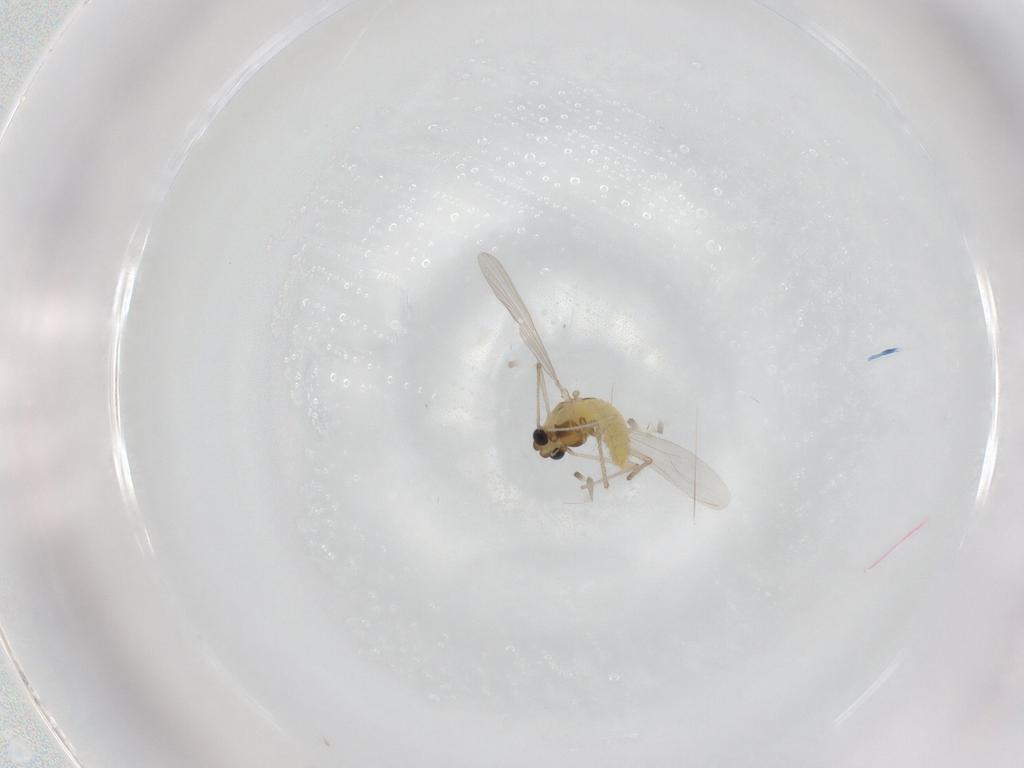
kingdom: Animalia
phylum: Arthropoda
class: Insecta
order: Diptera
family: Chironomidae
